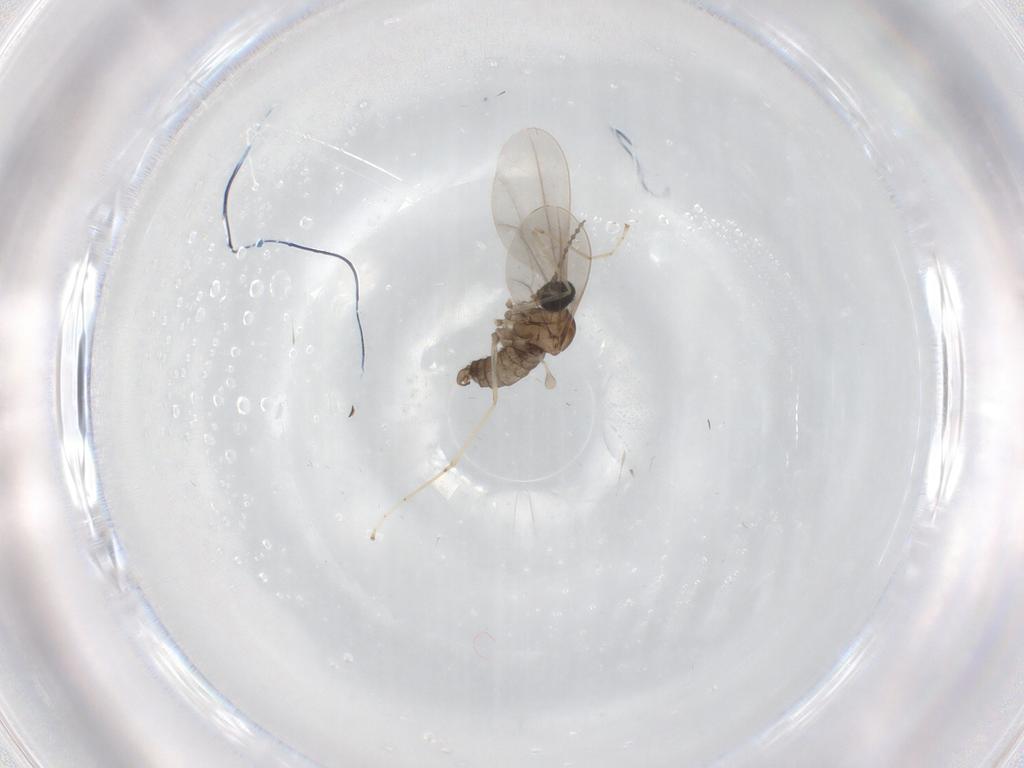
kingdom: Animalia
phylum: Arthropoda
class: Insecta
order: Diptera
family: Cecidomyiidae
